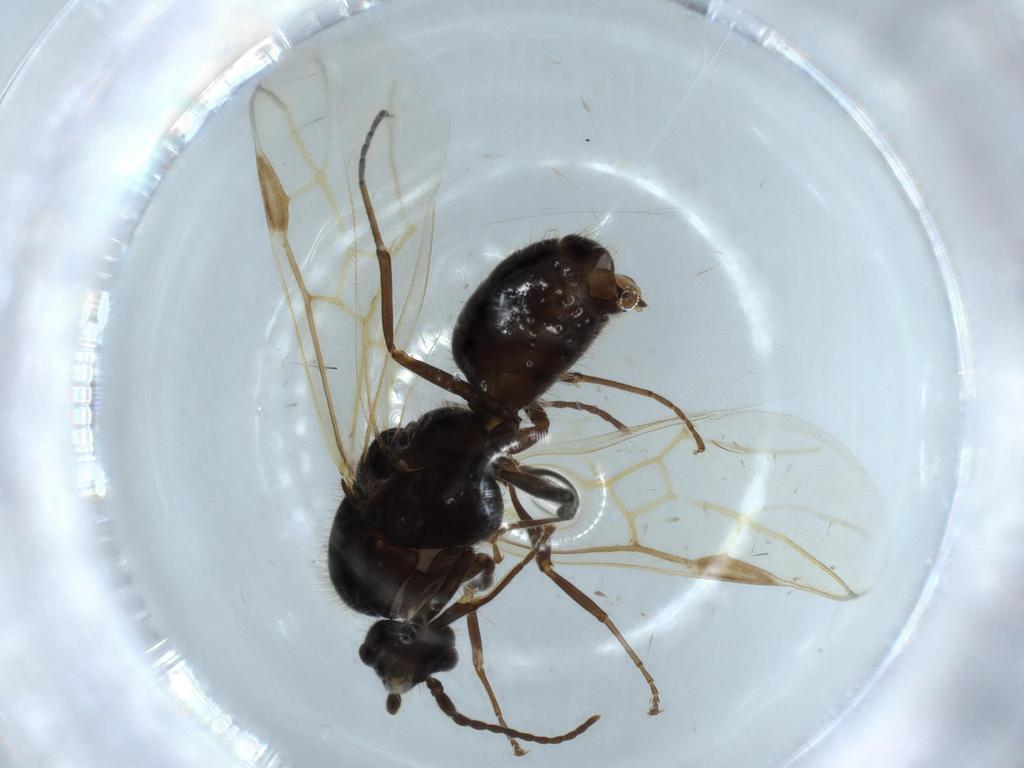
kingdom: Animalia
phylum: Arthropoda
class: Insecta
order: Hymenoptera
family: Formicidae
